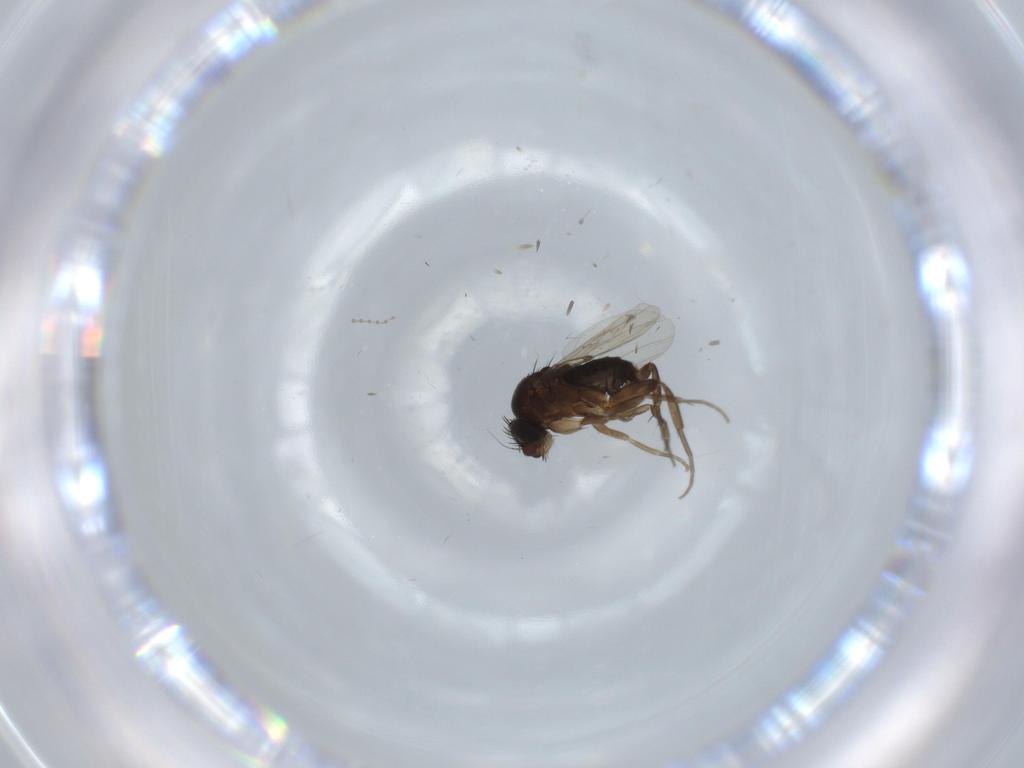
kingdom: Animalia
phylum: Arthropoda
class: Insecta
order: Diptera
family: Phoridae
